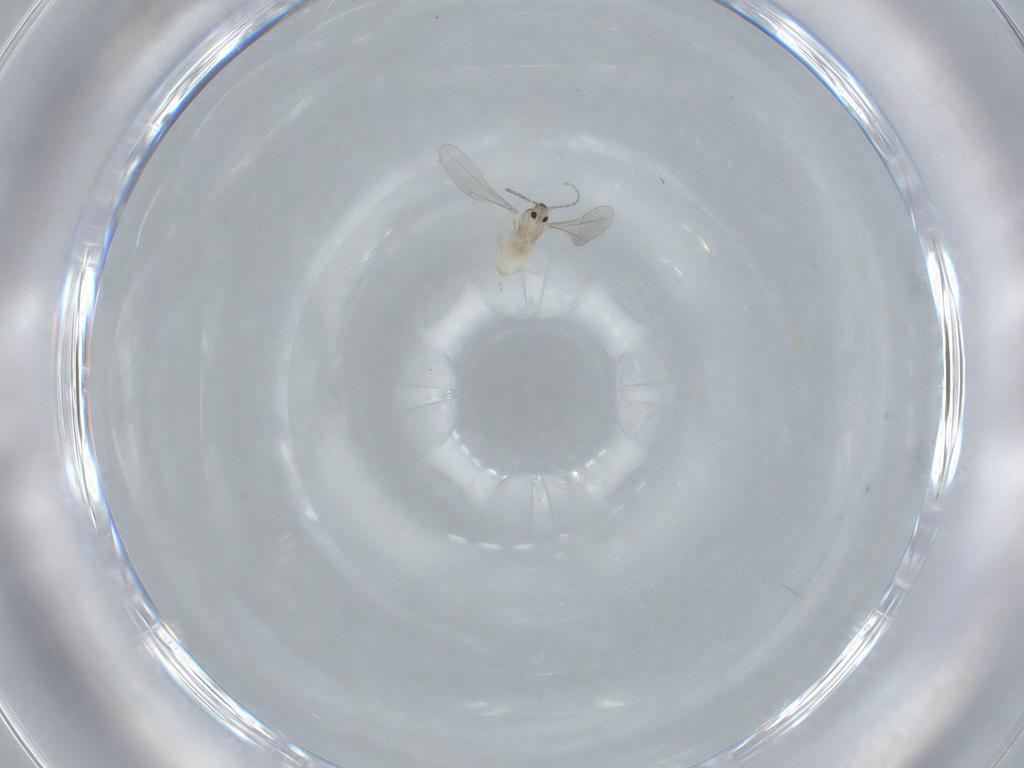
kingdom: Animalia
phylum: Arthropoda
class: Insecta
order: Diptera
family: Cecidomyiidae
